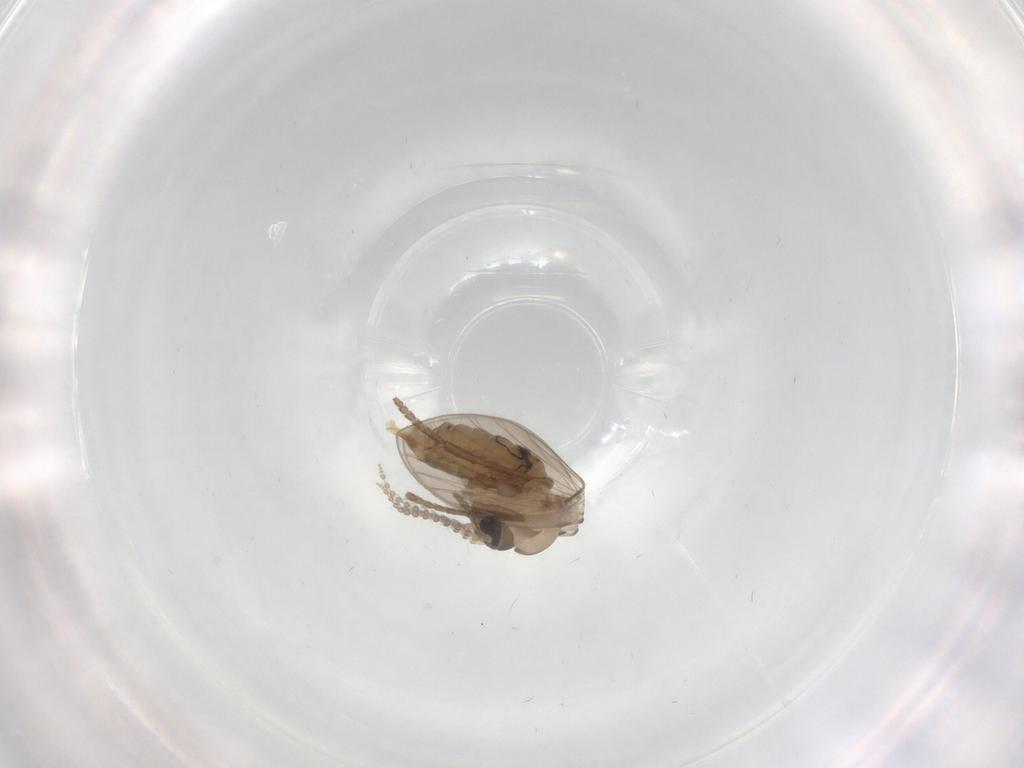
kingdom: Animalia
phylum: Arthropoda
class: Insecta
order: Diptera
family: Psychodidae
